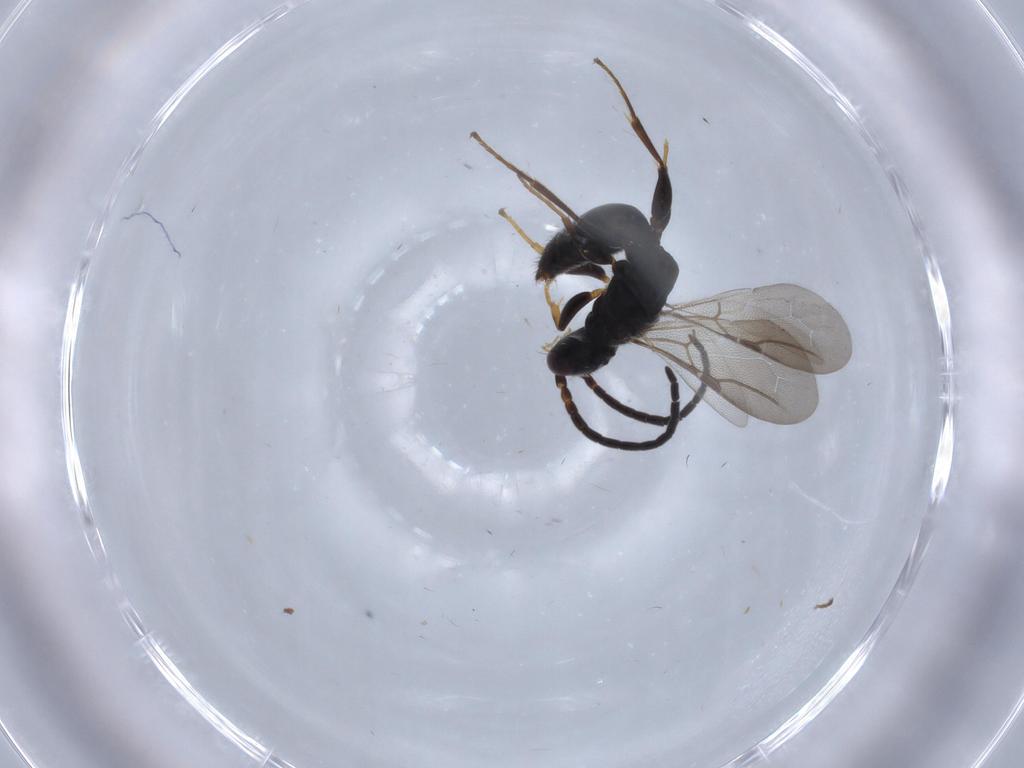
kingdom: Animalia
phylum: Arthropoda
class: Insecta
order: Hymenoptera
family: Bethylidae
